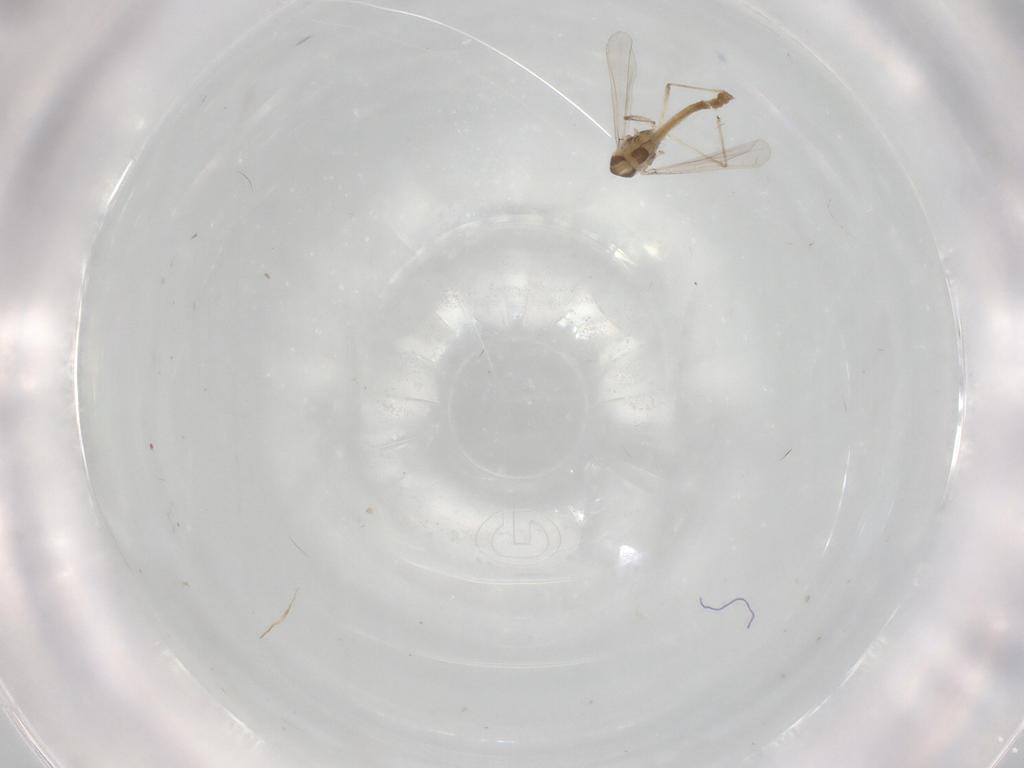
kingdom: Animalia
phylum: Arthropoda
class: Insecta
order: Diptera
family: Chironomidae
